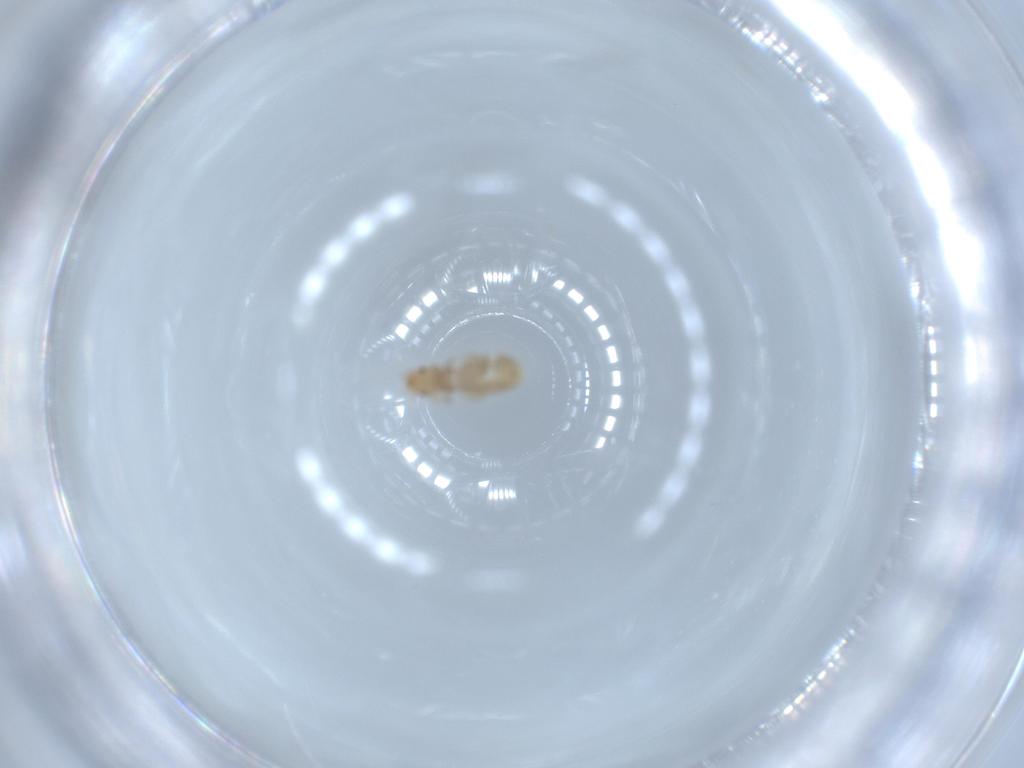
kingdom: Animalia
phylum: Arthropoda
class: Insecta
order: Psocodea
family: Liposcelididae
